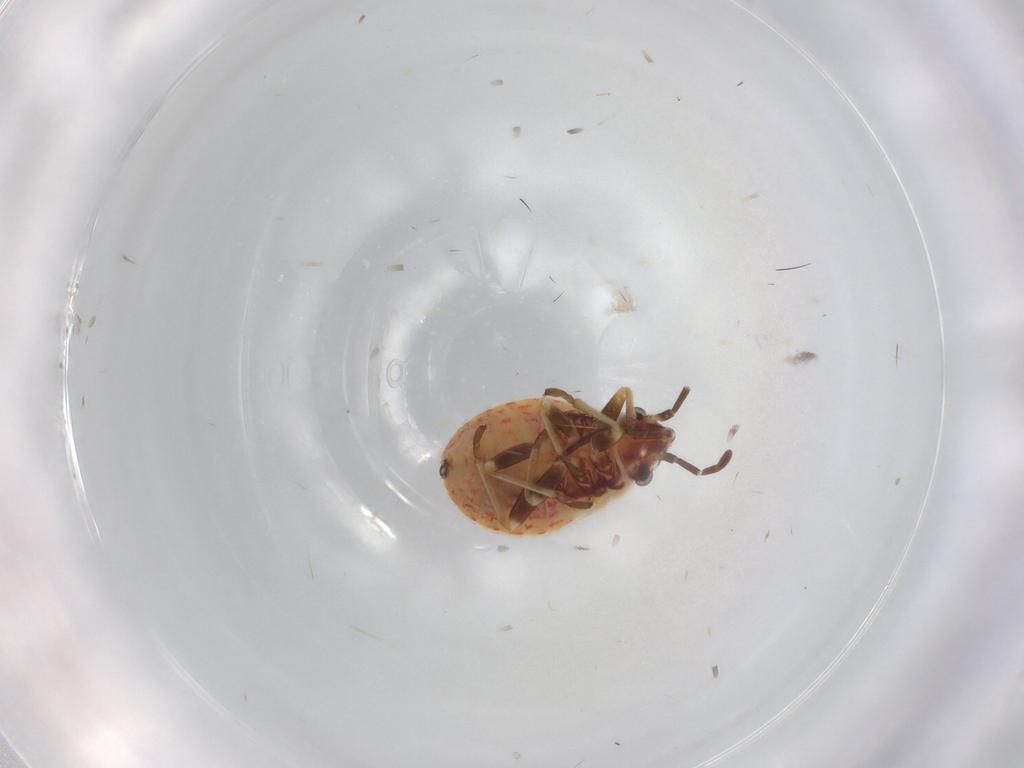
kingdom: Animalia
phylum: Arthropoda
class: Insecta
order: Hemiptera
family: Lygaeidae
